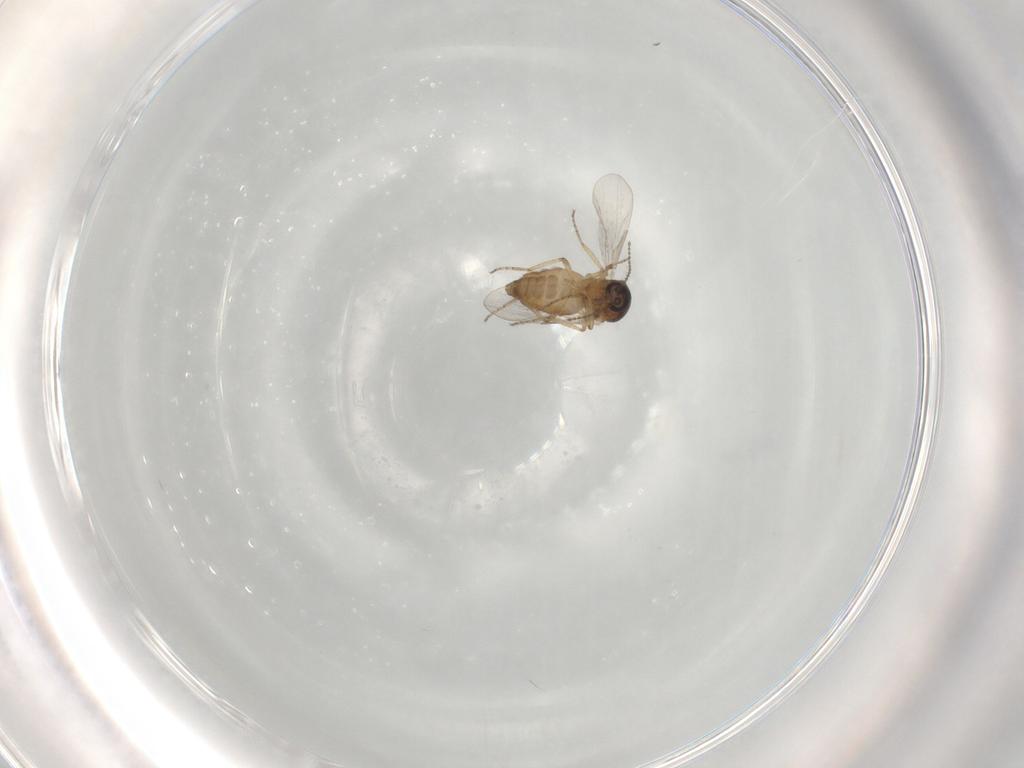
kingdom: Animalia
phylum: Arthropoda
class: Insecta
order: Diptera
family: Ceratopogonidae
